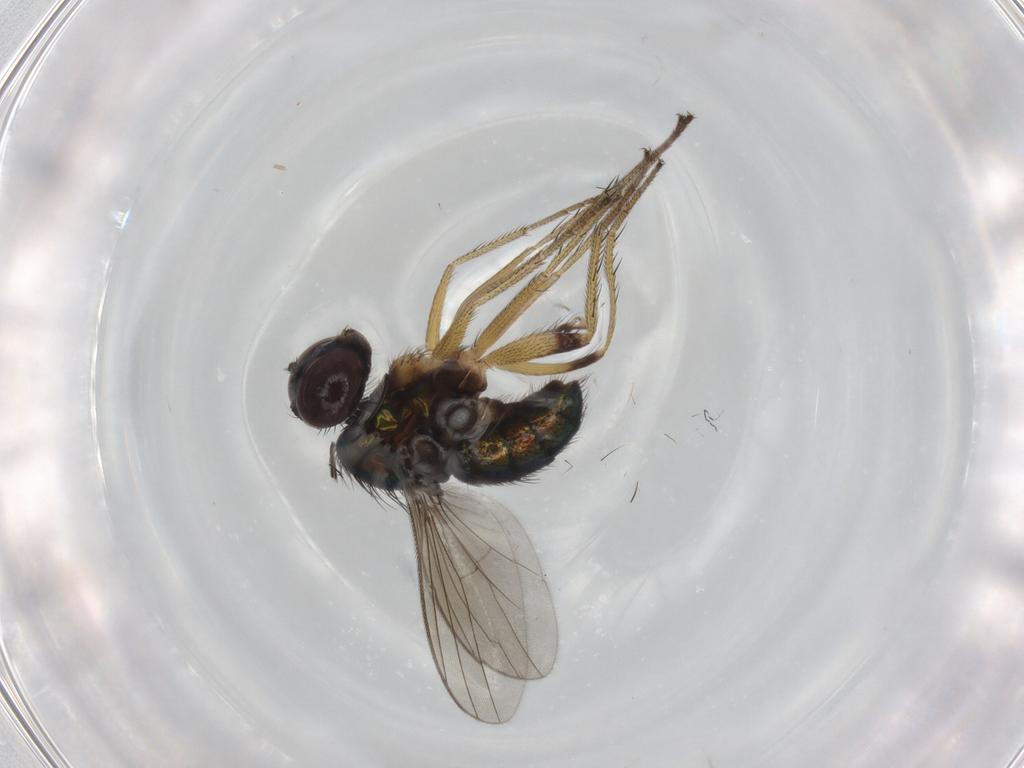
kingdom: Animalia
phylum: Arthropoda
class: Insecta
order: Diptera
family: Dolichopodidae
